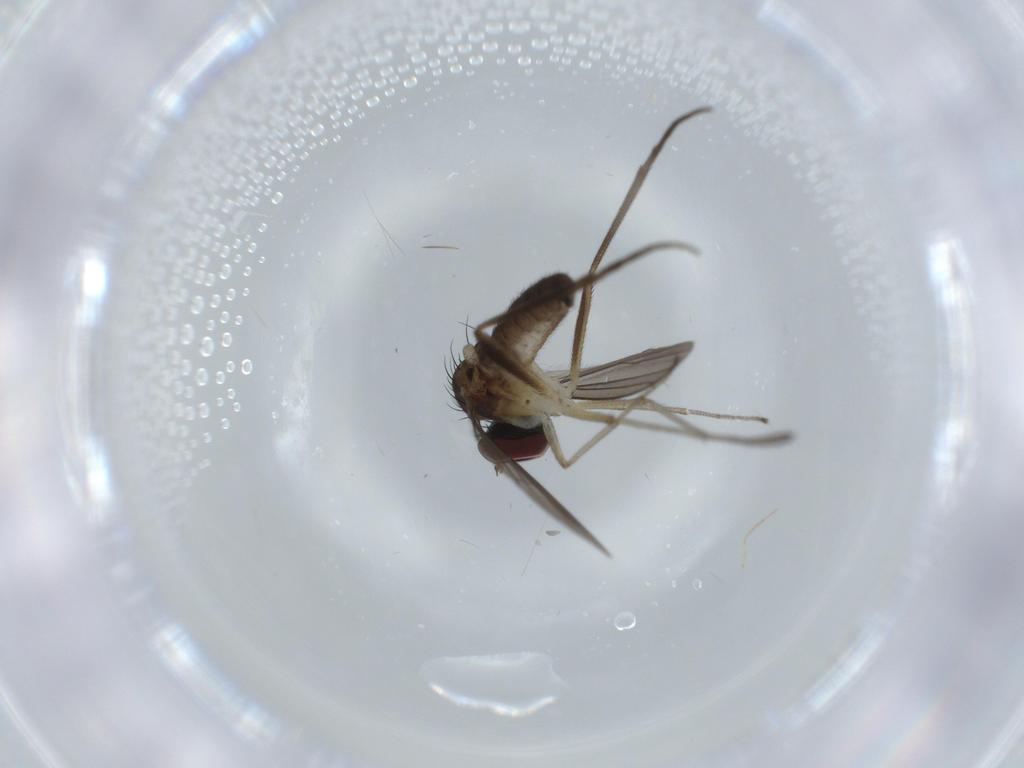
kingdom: Animalia
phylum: Arthropoda
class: Insecta
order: Diptera
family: Dolichopodidae
